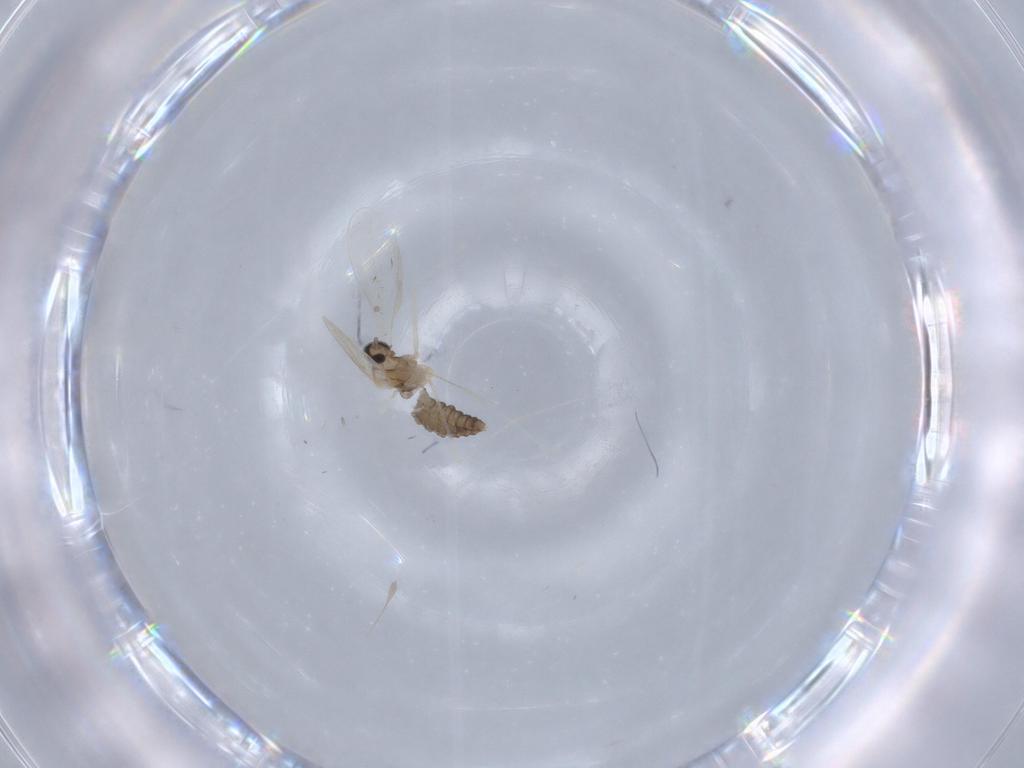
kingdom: Animalia
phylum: Arthropoda
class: Insecta
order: Diptera
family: Cecidomyiidae
